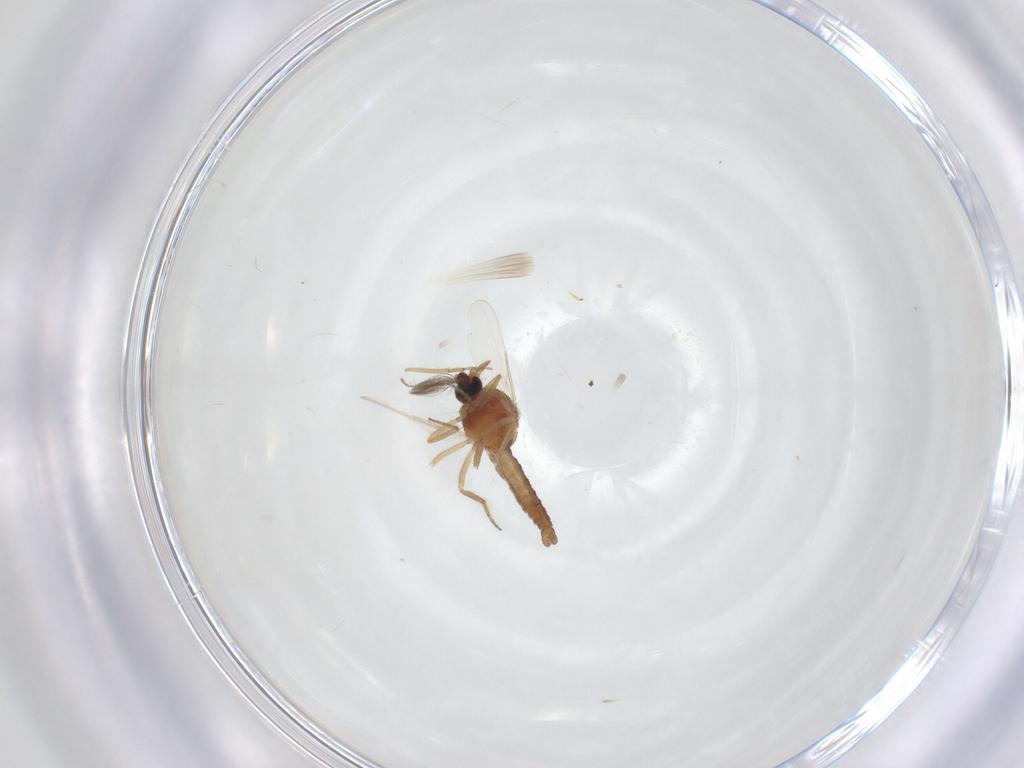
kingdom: Animalia
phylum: Arthropoda
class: Insecta
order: Diptera
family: Ceratopogonidae
